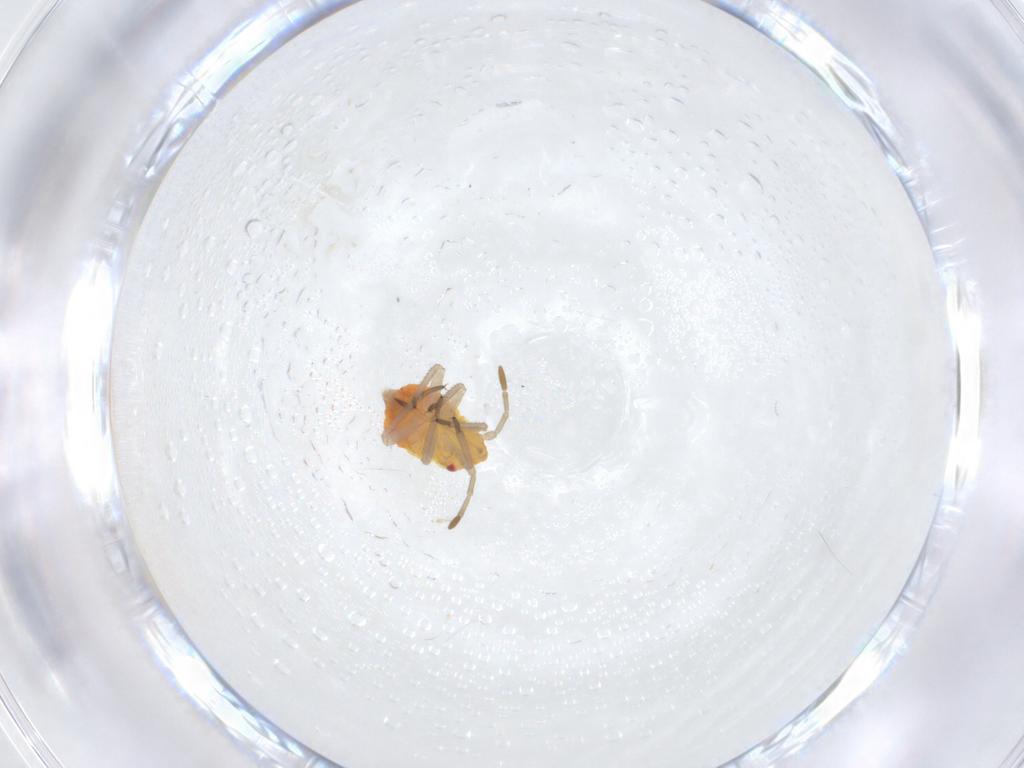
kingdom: Animalia
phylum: Arthropoda
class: Insecta
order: Hemiptera
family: Miridae
